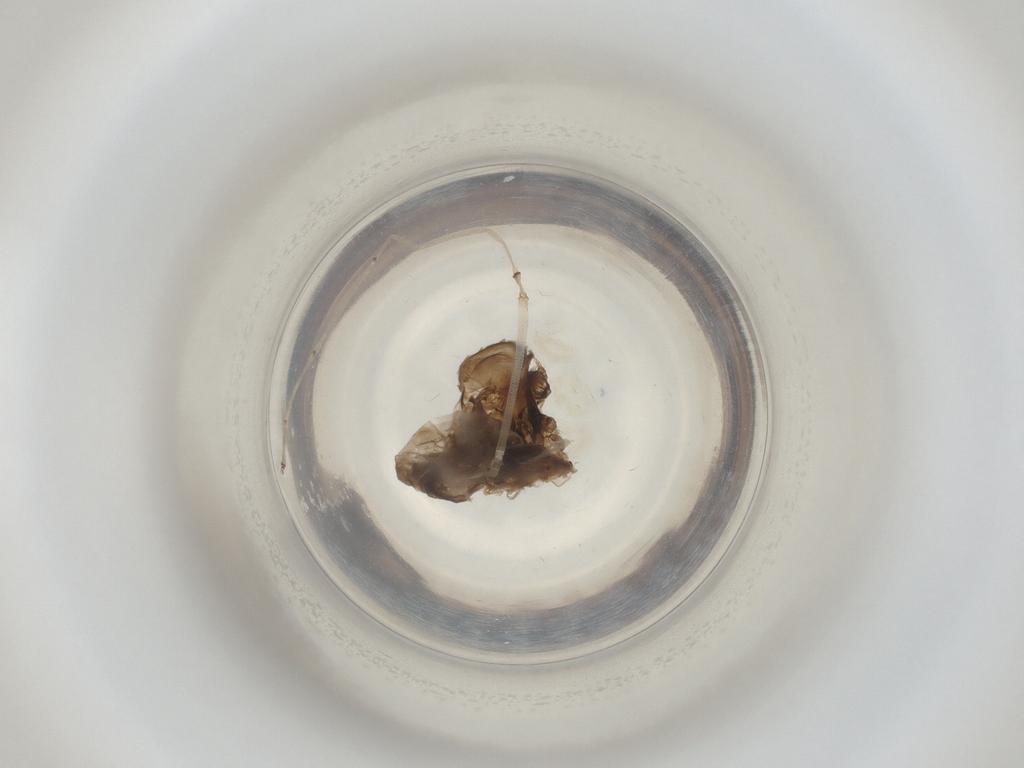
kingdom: Animalia
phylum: Arthropoda
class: Insecta
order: Diptera
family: Cecidomyiidae
